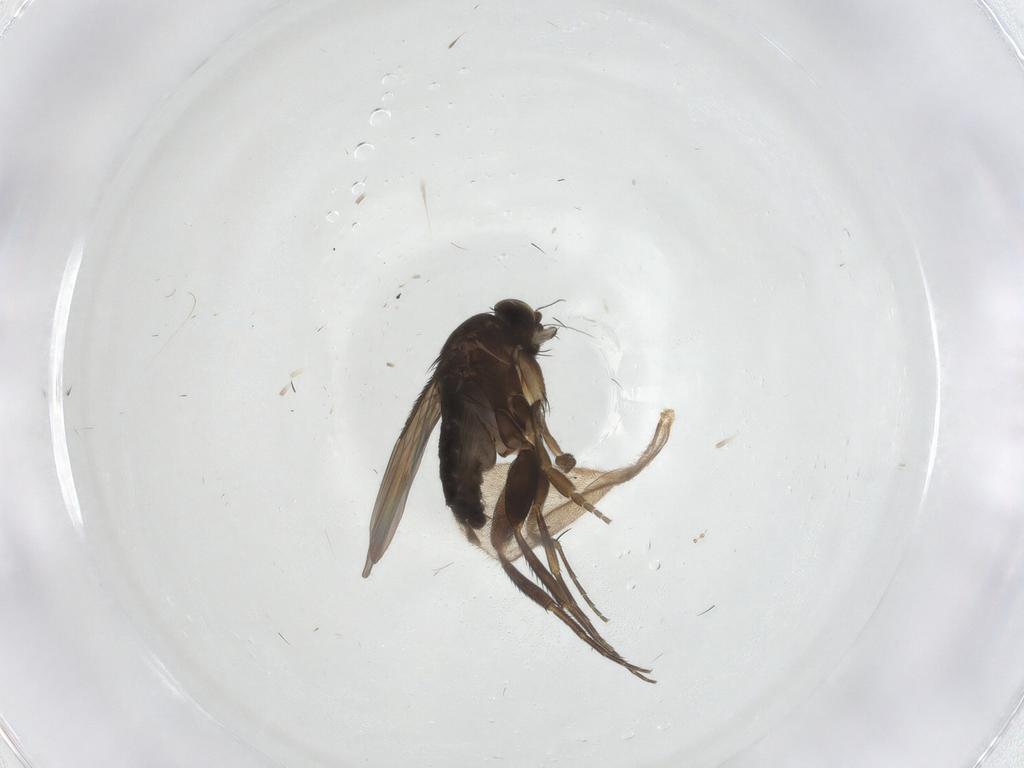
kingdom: Animalia
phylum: Arthropoda
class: Insecta
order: Diptera
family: Phoridae
